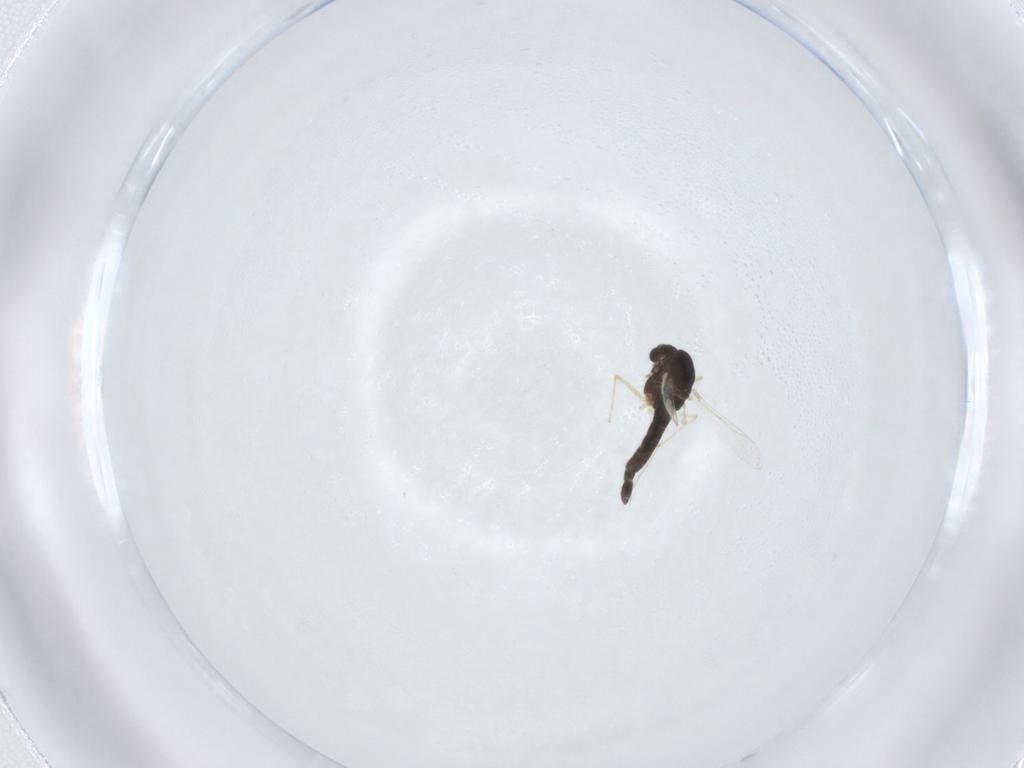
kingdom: Animalia
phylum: Arthropoda
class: Insecta
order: Diptera
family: Chironomidae
